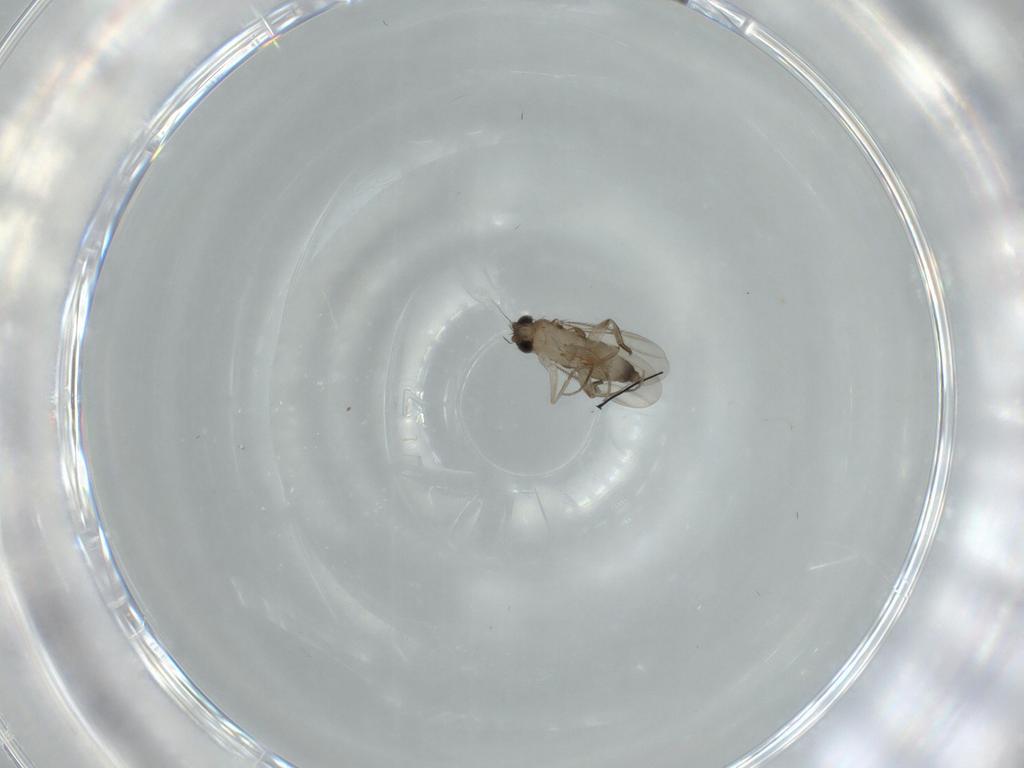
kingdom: Animalia
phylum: Arthropoda
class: Insecta
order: Diptera
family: Phoridae
